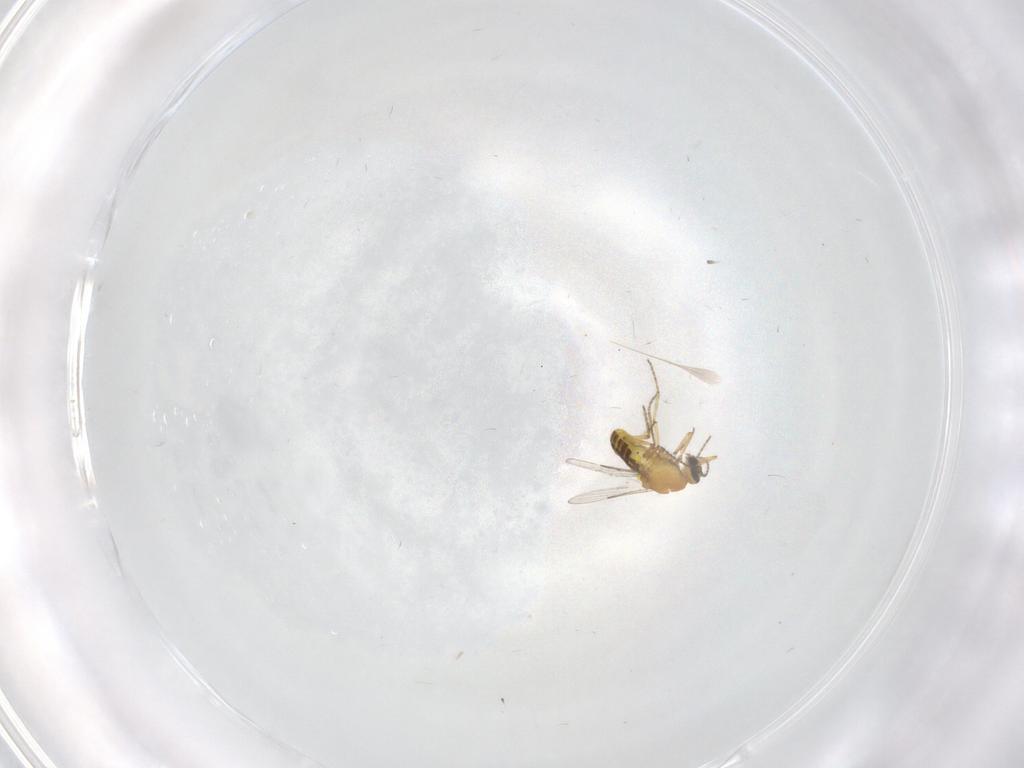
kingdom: Animalia
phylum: Arthropoda
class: Insecta
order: Diptera
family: Ceratopogonidae
